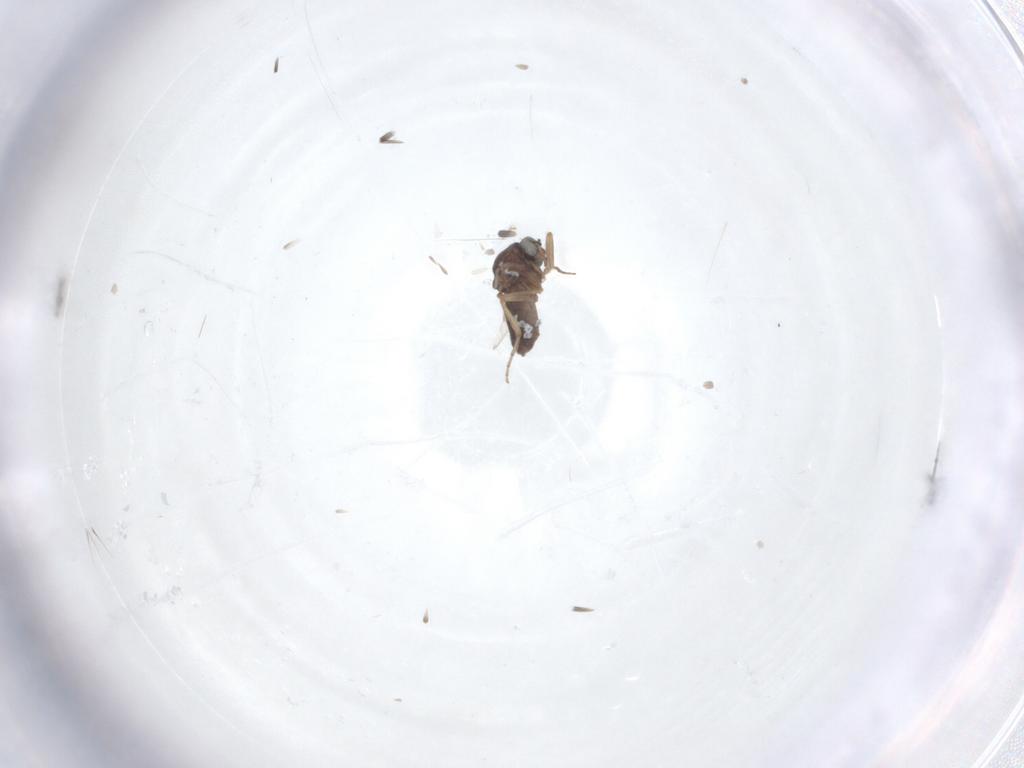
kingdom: Animalia
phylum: Arthropoda
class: Insecta
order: Diptera
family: Ceratopogonidae
